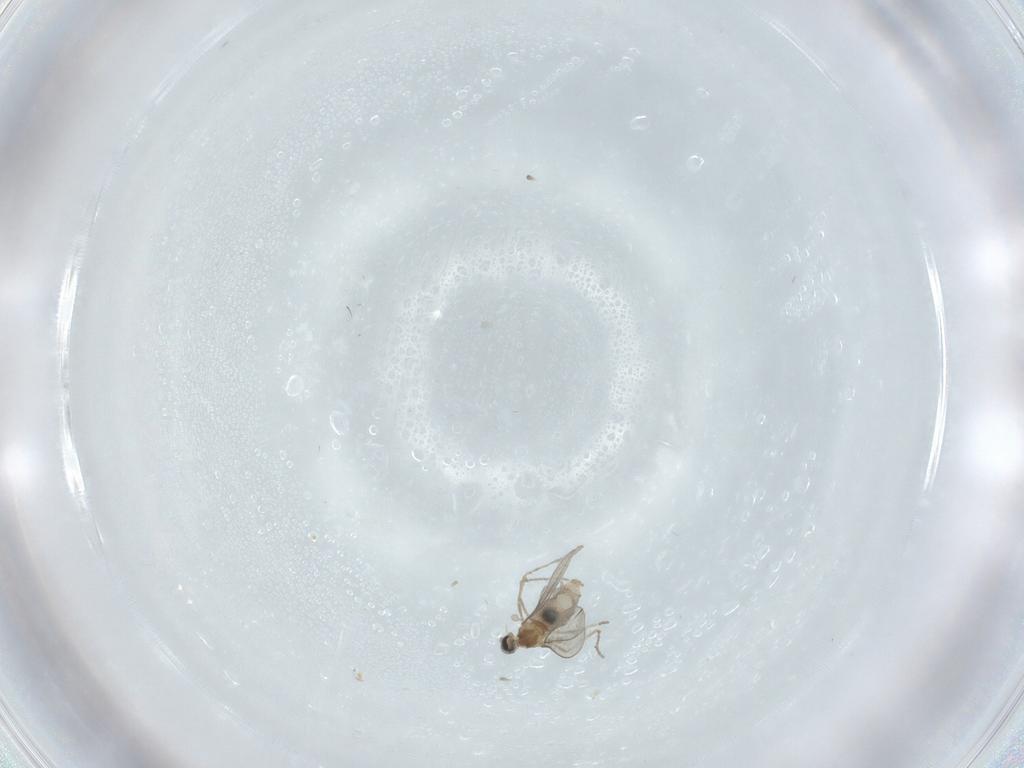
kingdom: Animalia
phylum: Arthropoda
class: Insecta
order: Diptera
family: Cecidomyiidae
